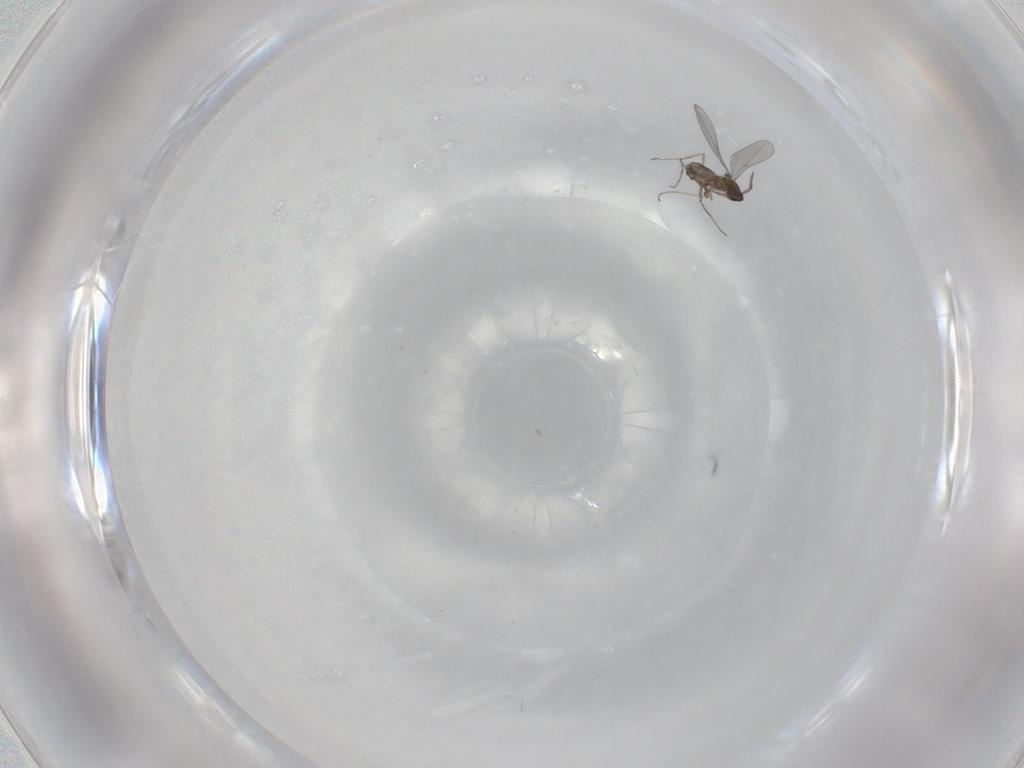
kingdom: Animalia
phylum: Arthropoda
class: Insecta
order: Diptera
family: Cecidomyiidae
